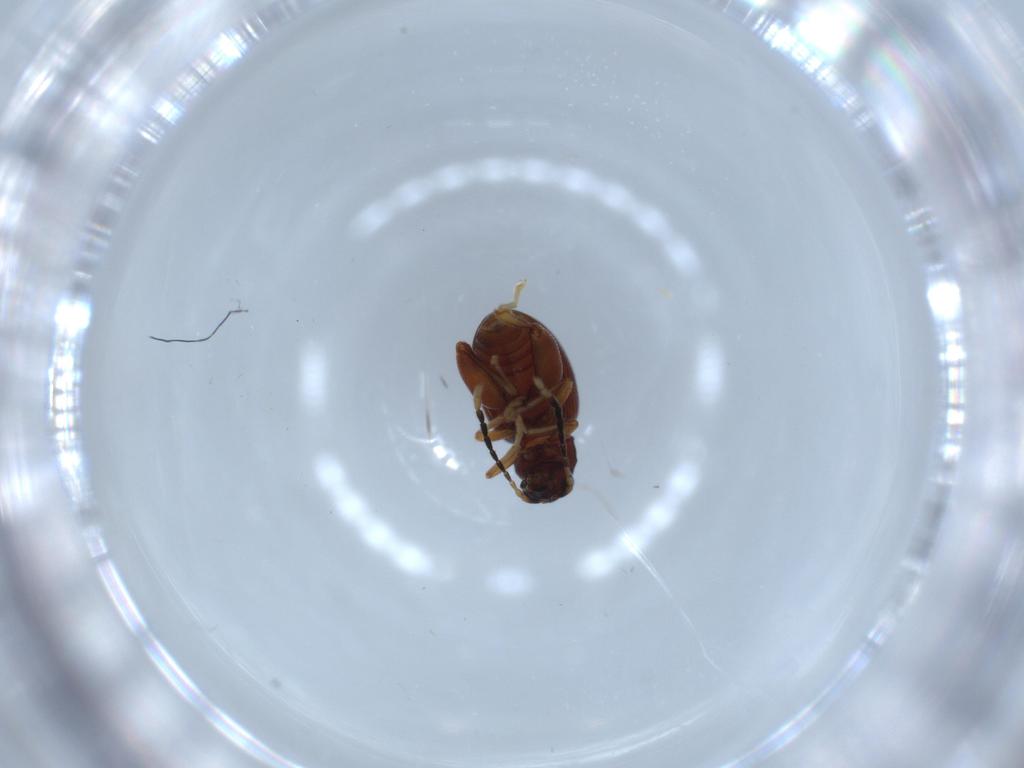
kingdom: Animalia
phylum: Arthropoda
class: Insecta
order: Coleoptera
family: Chrysomelidae
